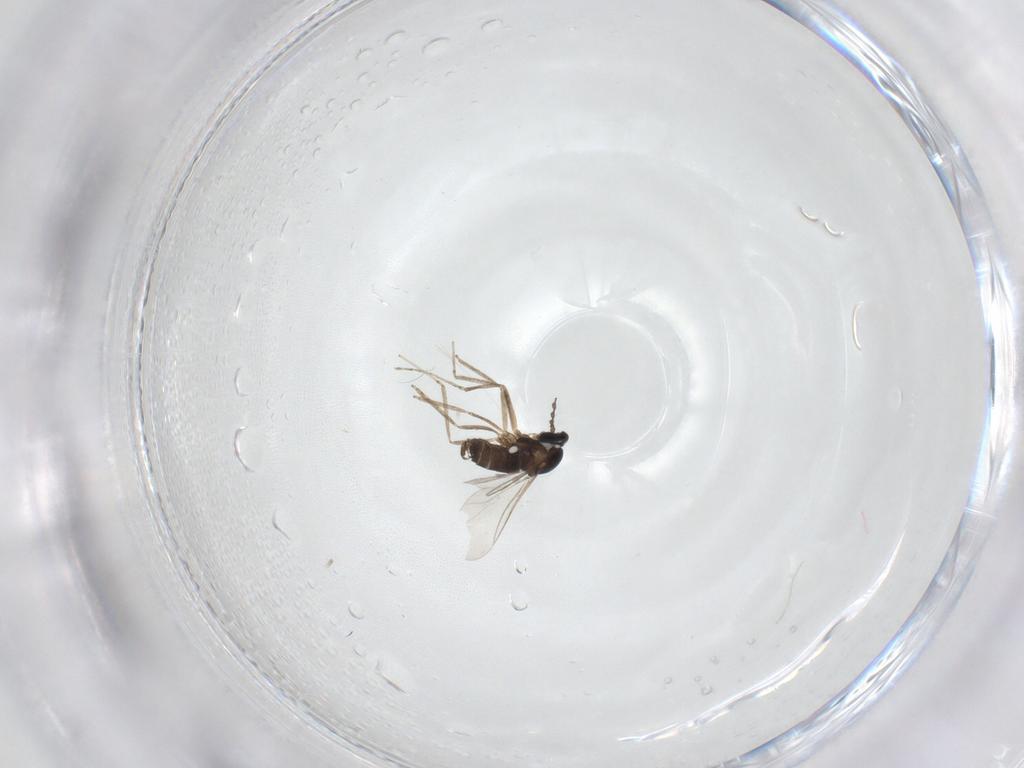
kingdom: Animalia
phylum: Arthropoda
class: Insecta
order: Diptera
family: Cecidomyiidae
